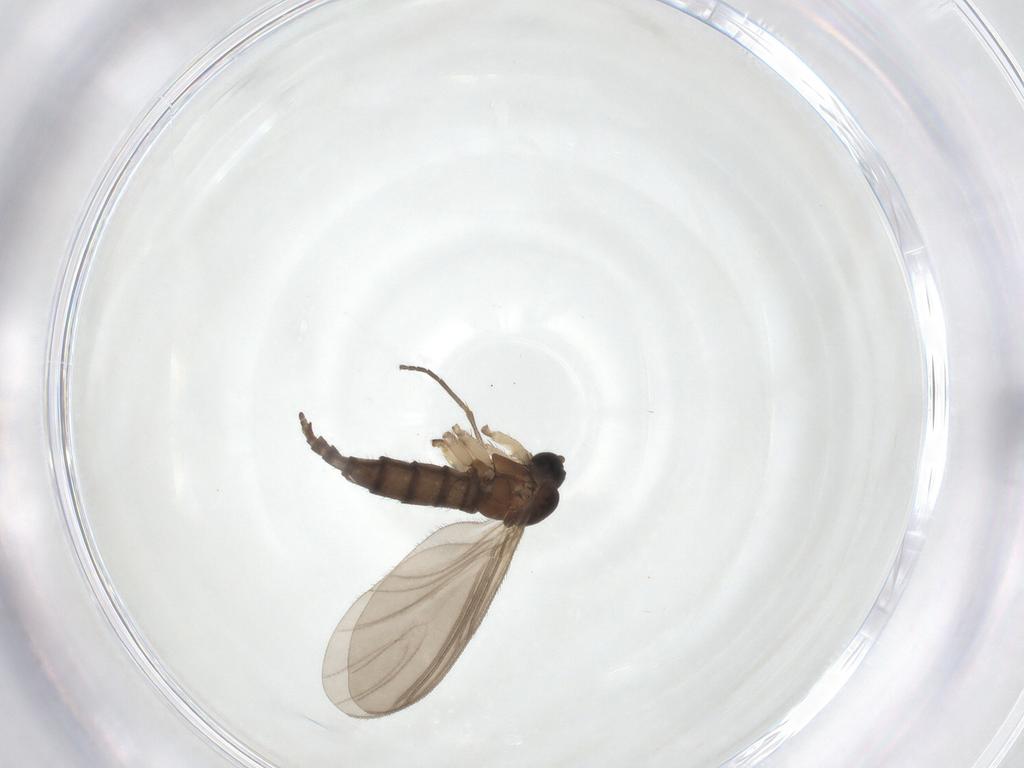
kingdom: Animalia
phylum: Arthropoda
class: Insecta
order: Diptera
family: Sciaridae
